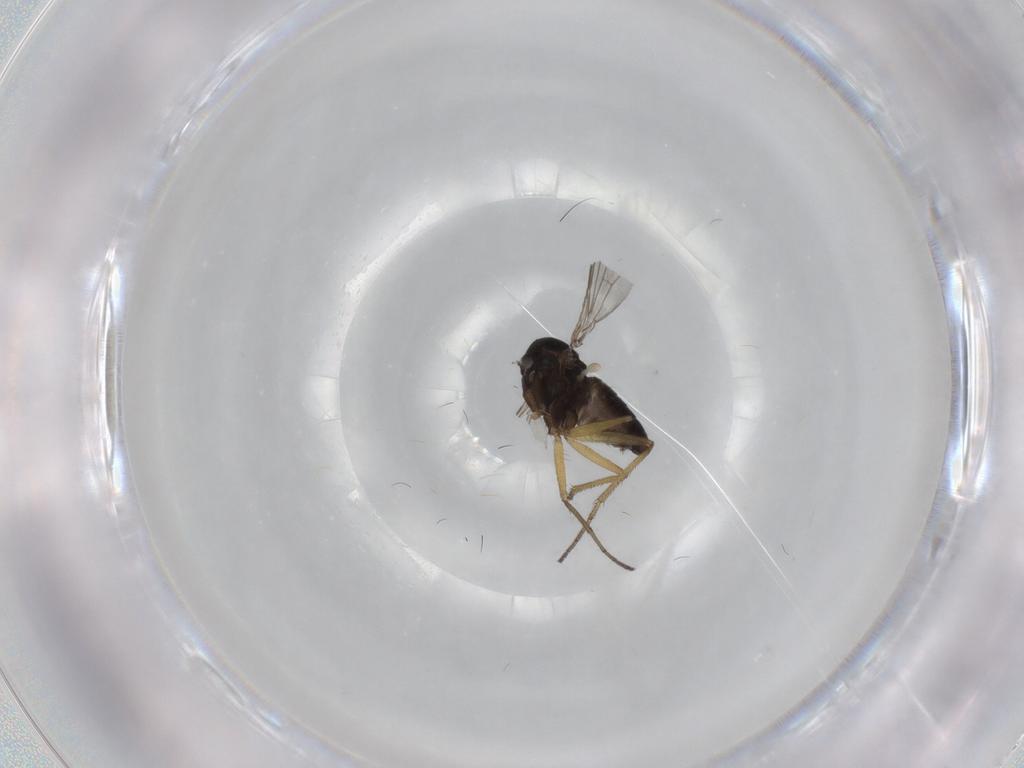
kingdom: Animalia
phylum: Arthropoda
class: Insecta
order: Diptera
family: Dolichopodidae
